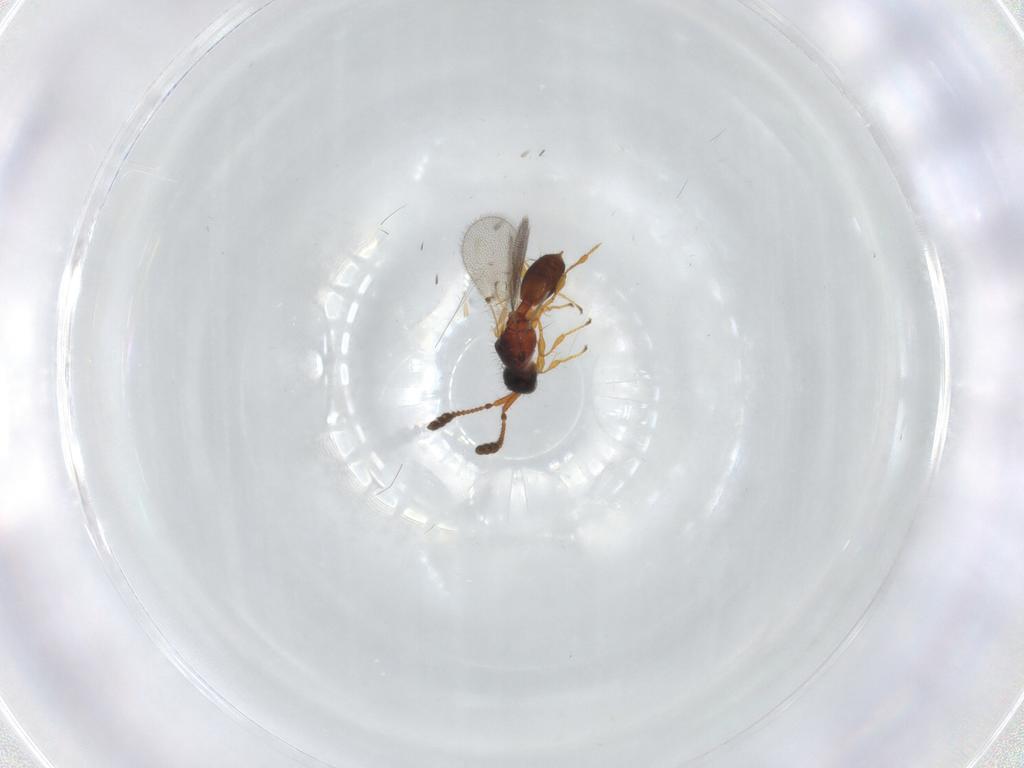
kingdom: Animalia
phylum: Arthropoda
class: Insecta
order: Hymenoptera
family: Diapriidae
